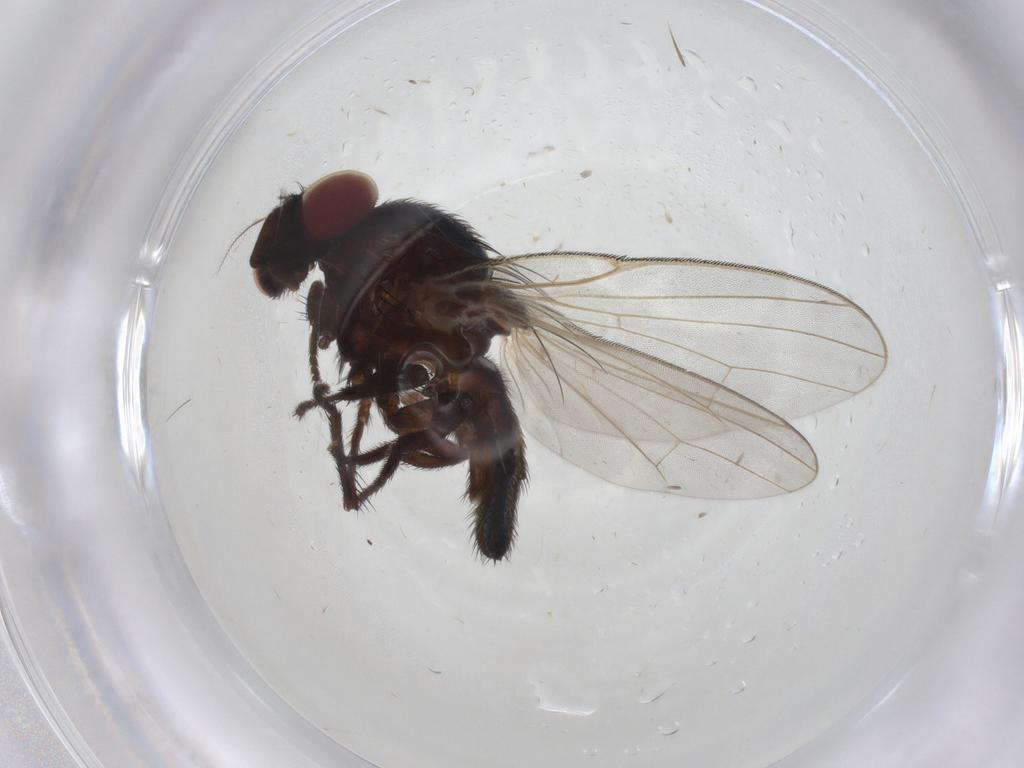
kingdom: Animalia
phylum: Arthropoda
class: Insecta
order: Diptera
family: Lonchaeidae
